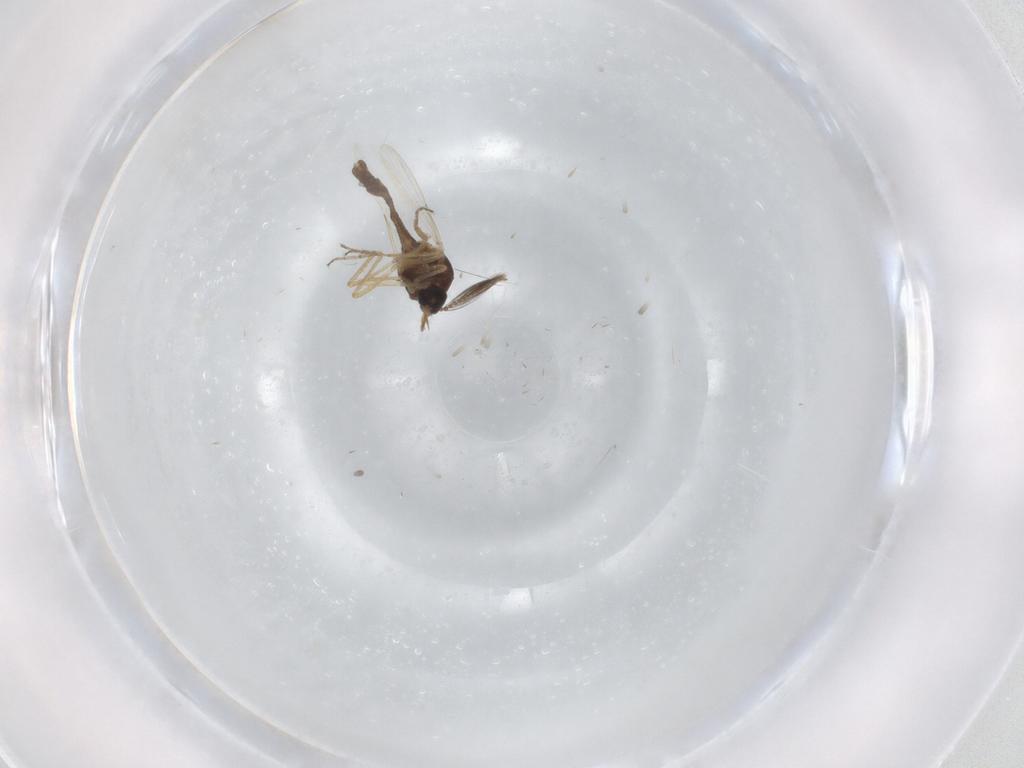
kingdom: Animalia
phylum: Arthropoda
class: Insecta
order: Diptera
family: Ceratopogonidae
